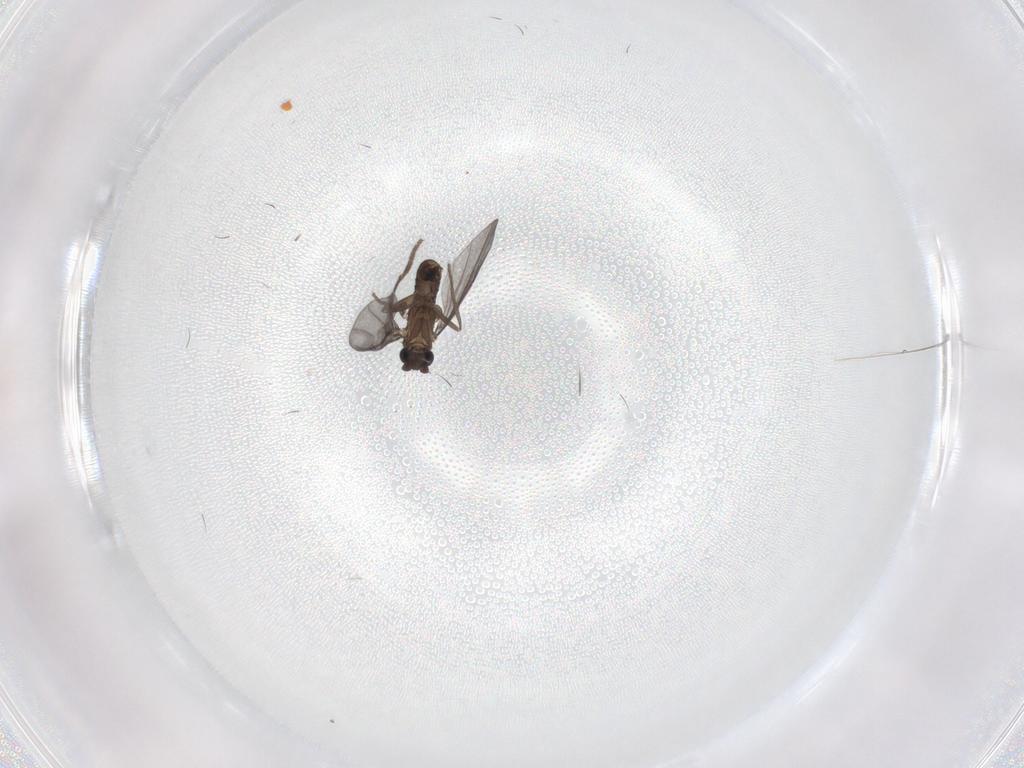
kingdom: Animalia
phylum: Arthropoda
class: Insecta
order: Diptera
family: Phoridae
